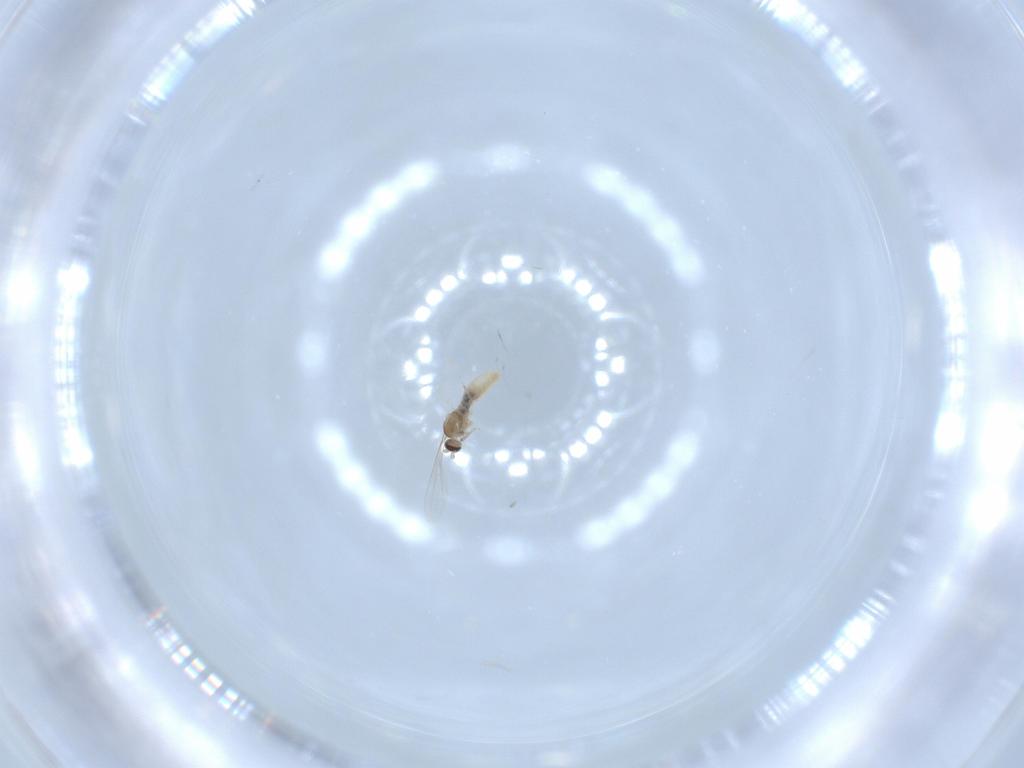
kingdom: Animalia
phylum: Arthropoda
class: Insecta
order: Diptera
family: Cecidomyiidae
